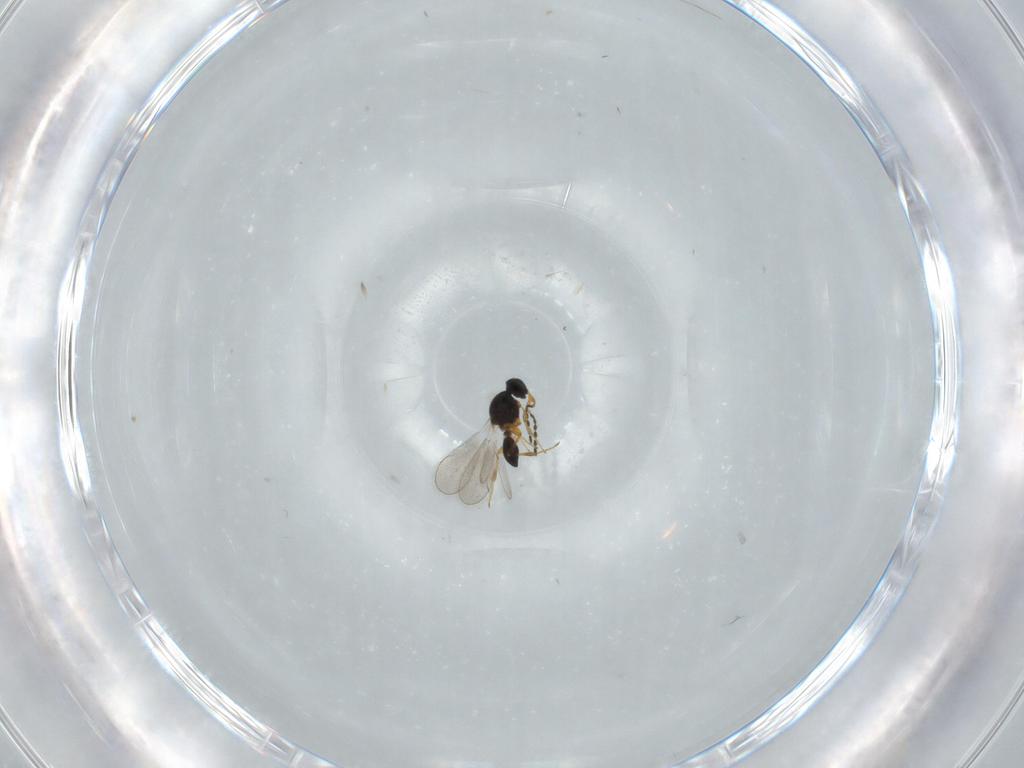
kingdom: Animalia
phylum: Arthropoda
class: Insecta
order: Hymenoptera
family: Platygastridae
